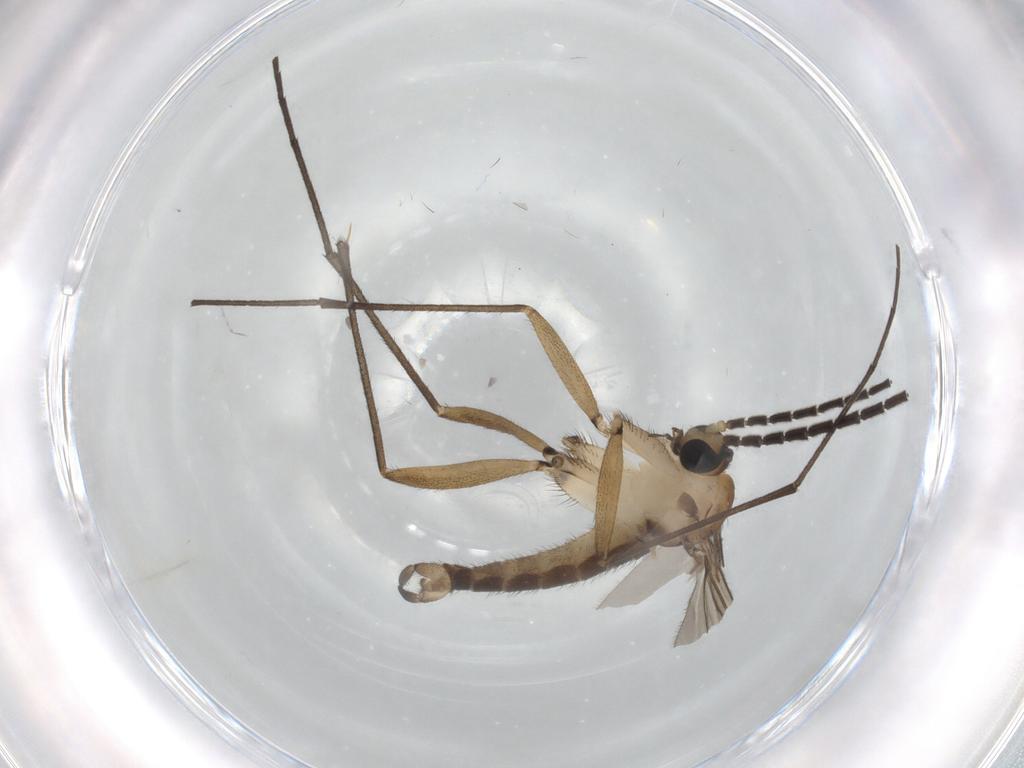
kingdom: Animalia
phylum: Arthropoda
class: Insecta
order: Diptera
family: Sciaridae
